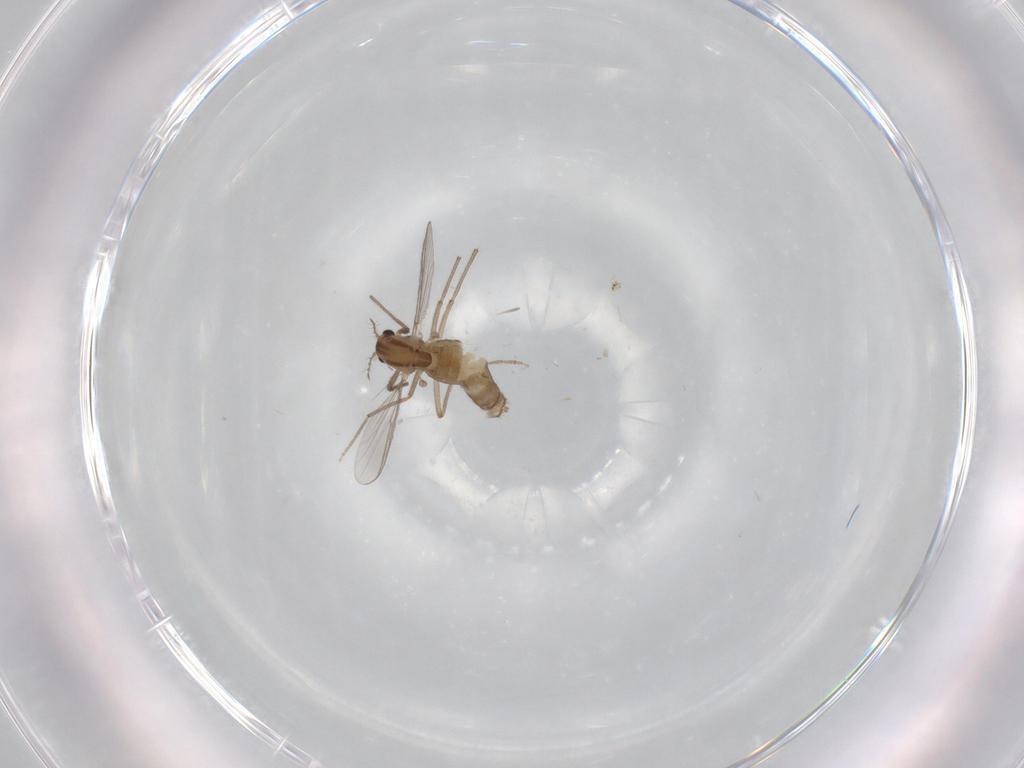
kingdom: Animalia
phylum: Arthropoda
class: Insecta
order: Diptera
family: Chironomidae
